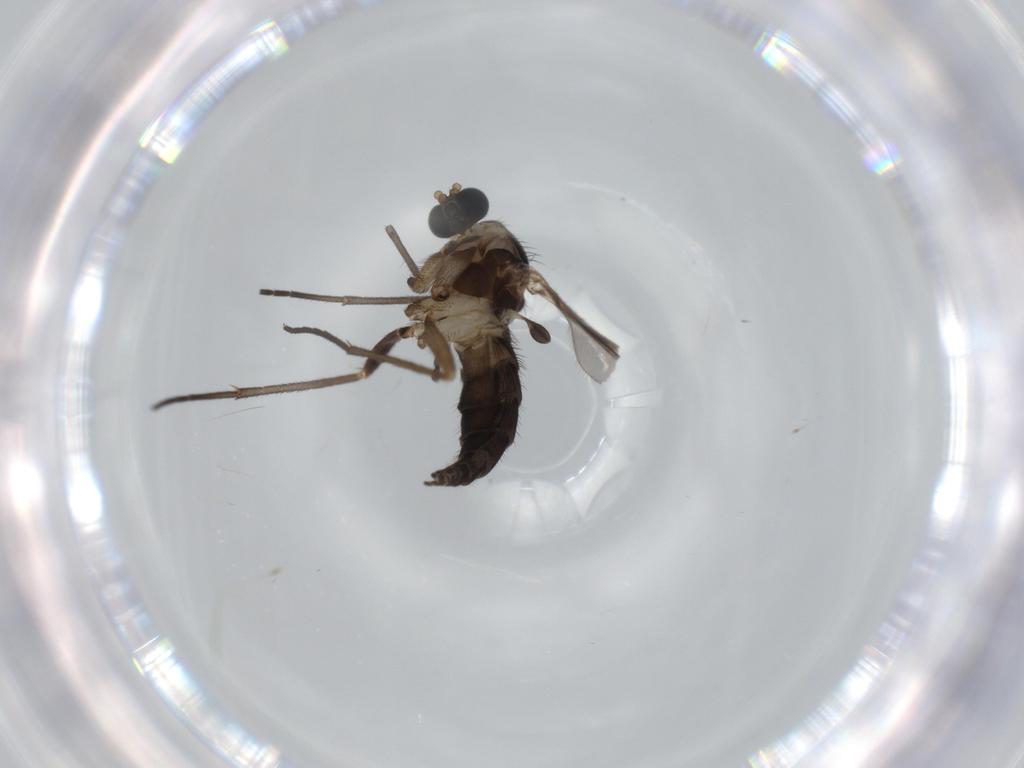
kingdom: Animalia
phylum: Arthropoda
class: Insecta
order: Diptera
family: Sciaridae
